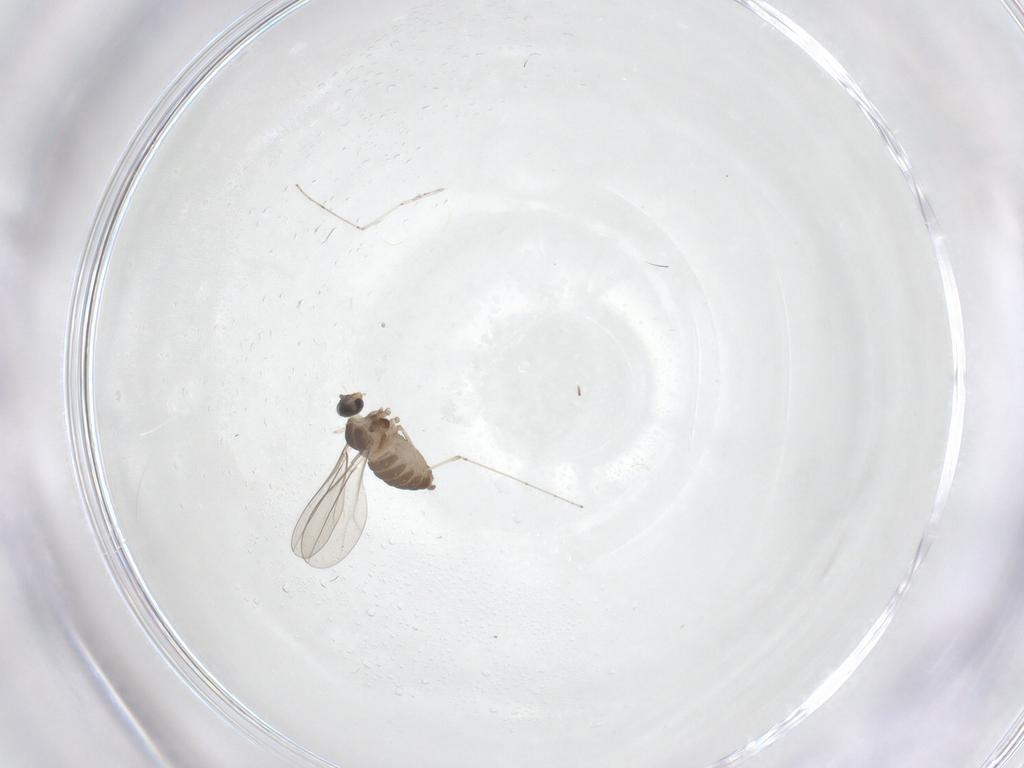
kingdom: Animalia
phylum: Arthropoda
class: Insecta
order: Diptera
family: Cecidomyiidae
